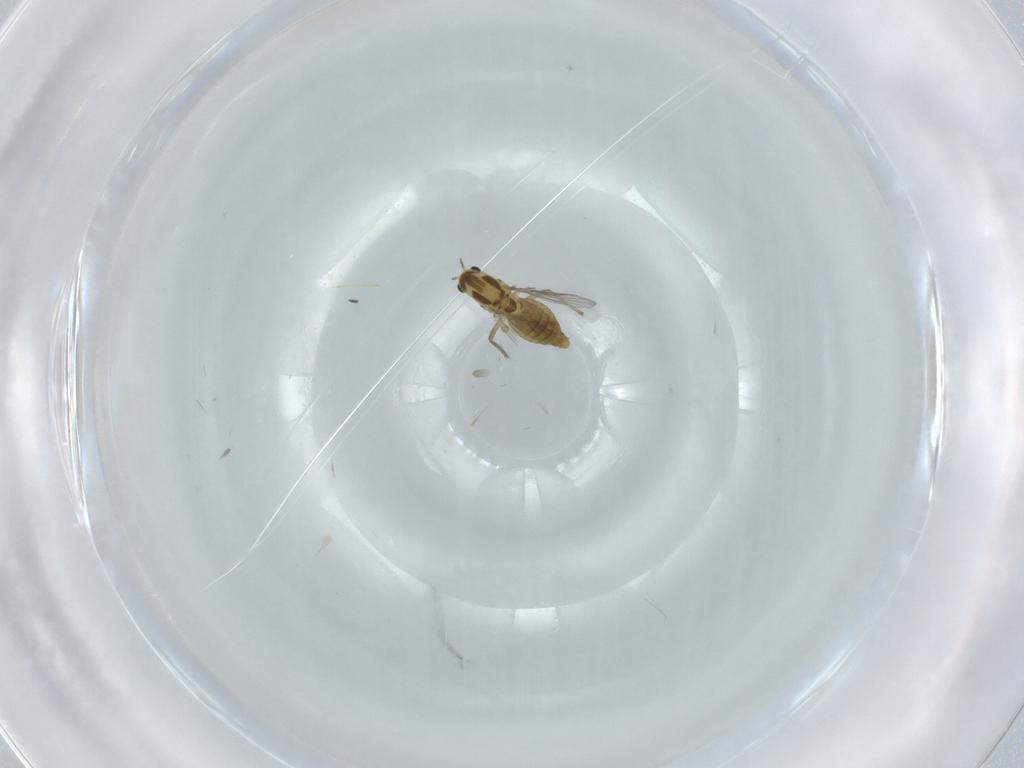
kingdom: Animalia
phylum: Arthropoda
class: Insecta
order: Diptera
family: Chironomidae
